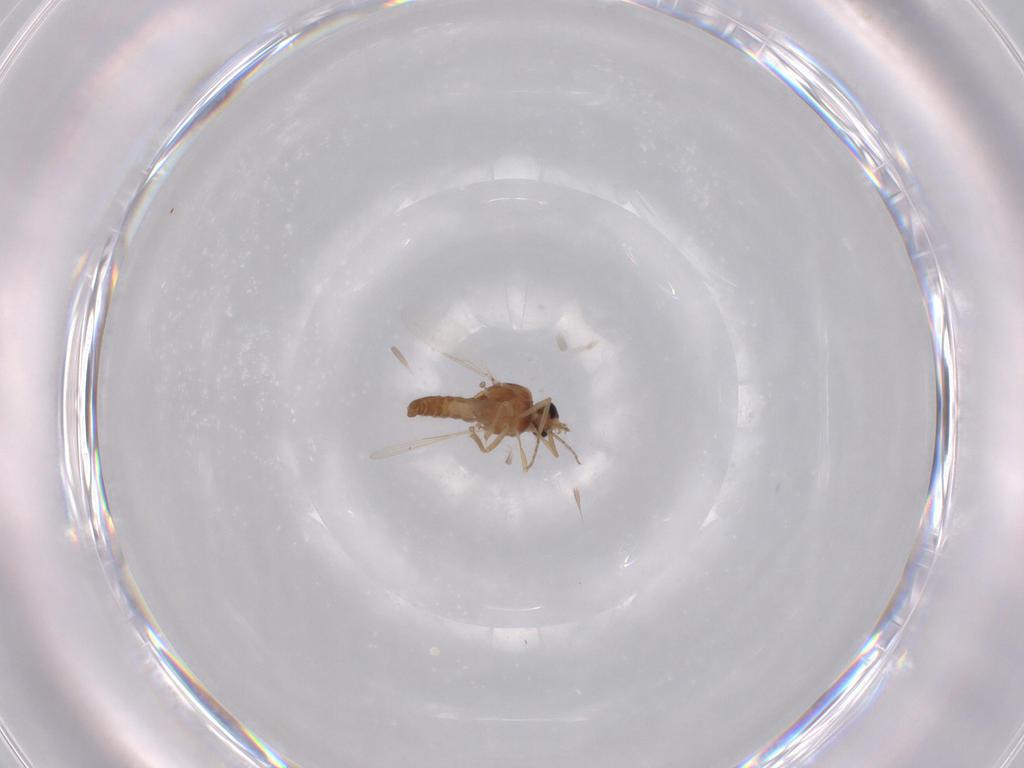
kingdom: Animalia
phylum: Arthropoda
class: Insecta
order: Diptera
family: Ceratopogonidae
